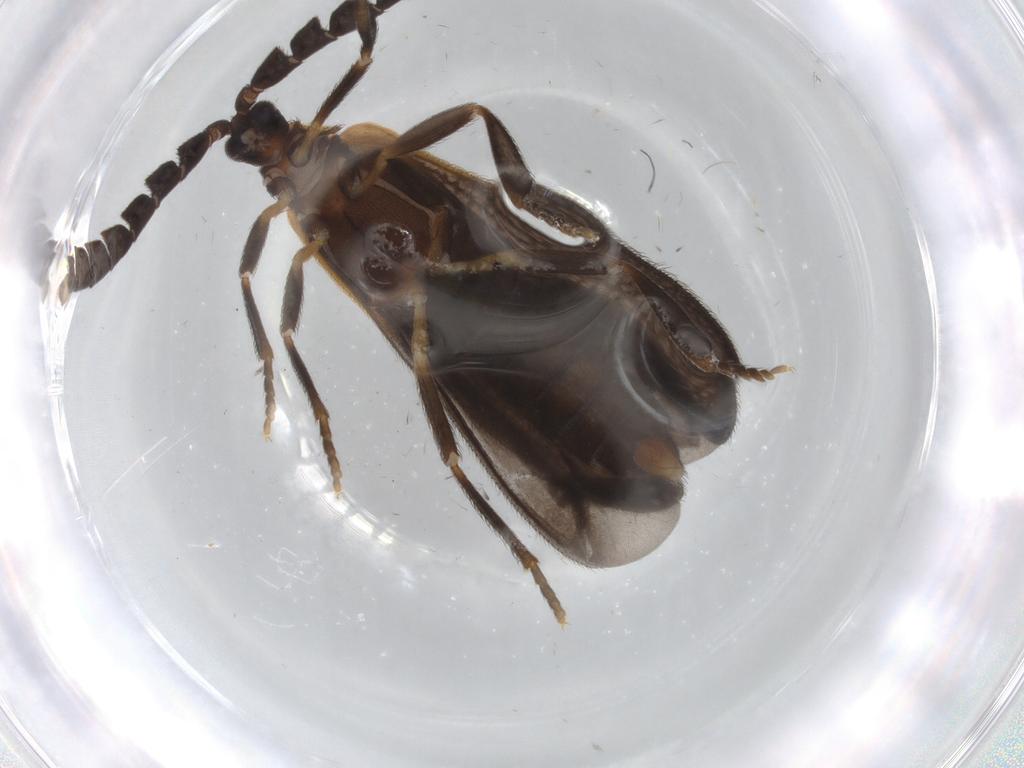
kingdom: Animalia
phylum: Arthropoda
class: Insecta
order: Coleoptera
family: Lycidae
